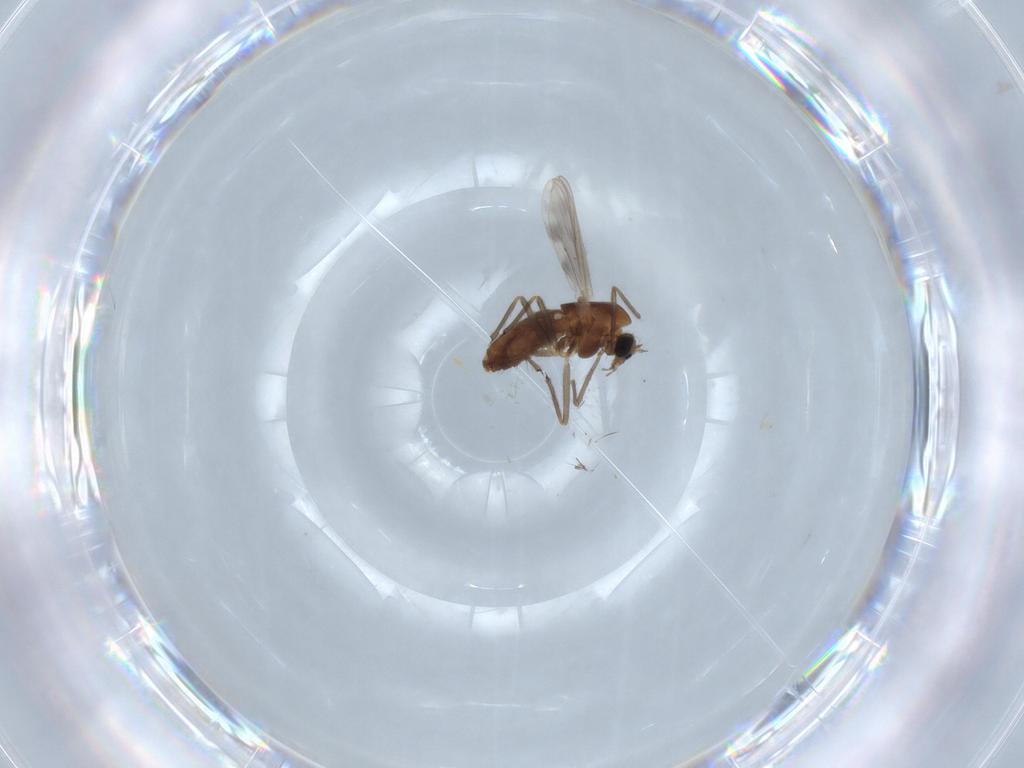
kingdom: Animalia
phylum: Arthropoda
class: Insecta
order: Diptera
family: Chironomidae
